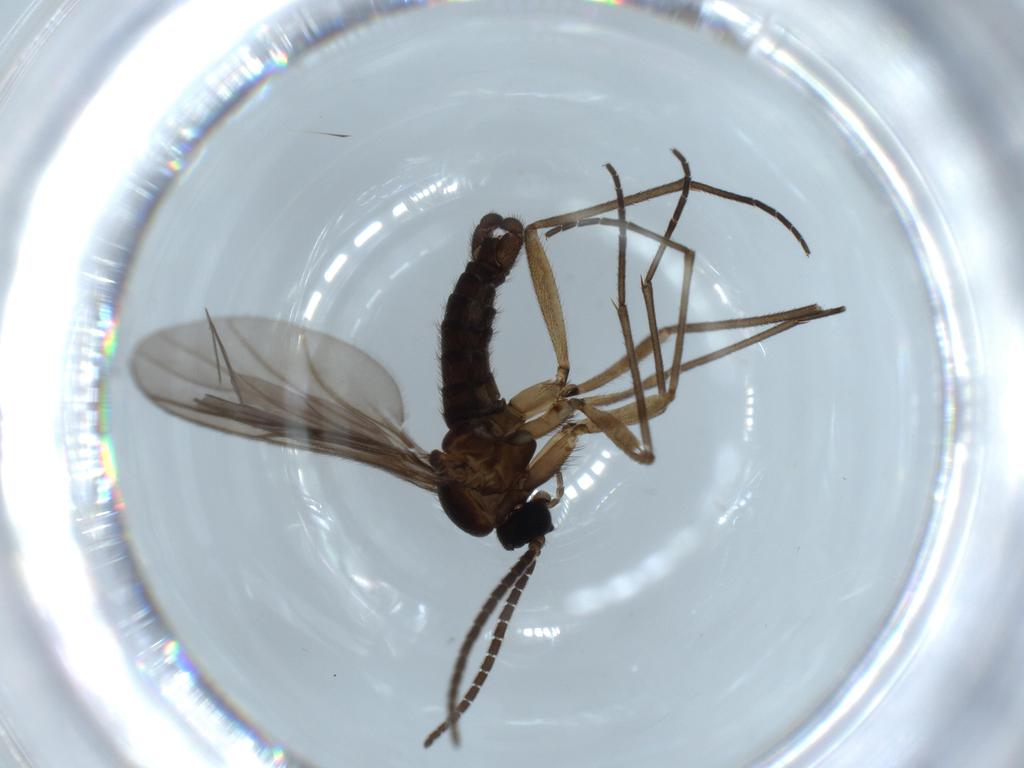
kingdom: Animalia
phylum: Arthropoda
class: Insecta
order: Diptera
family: Sciaridae
